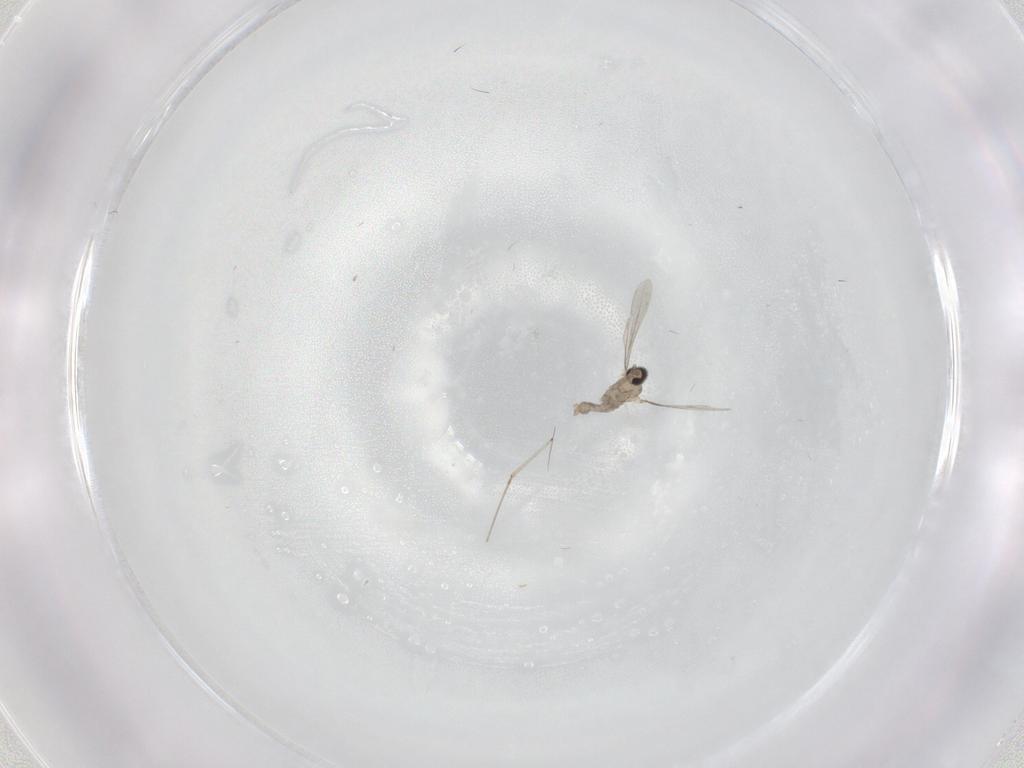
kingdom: Animalia
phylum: Arthropoda
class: Insecta
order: Diptera
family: Cecidomyiidae
